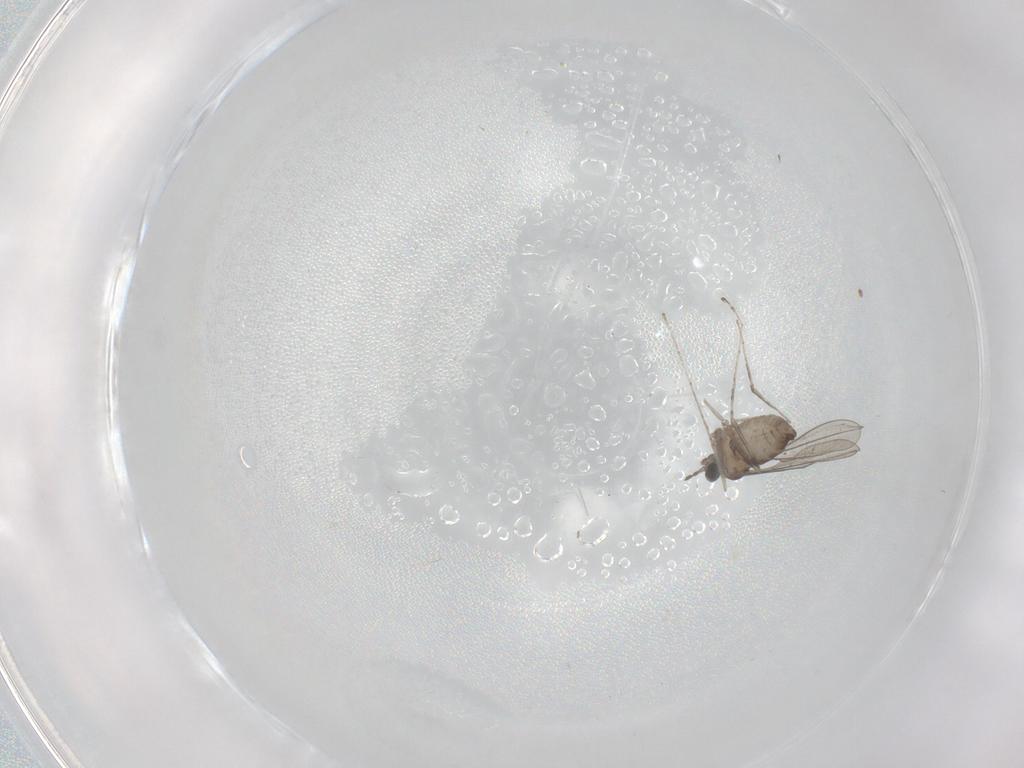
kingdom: Animalia
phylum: Arthropoda
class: Insecta
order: Diptera
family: Cecidomyiidae
